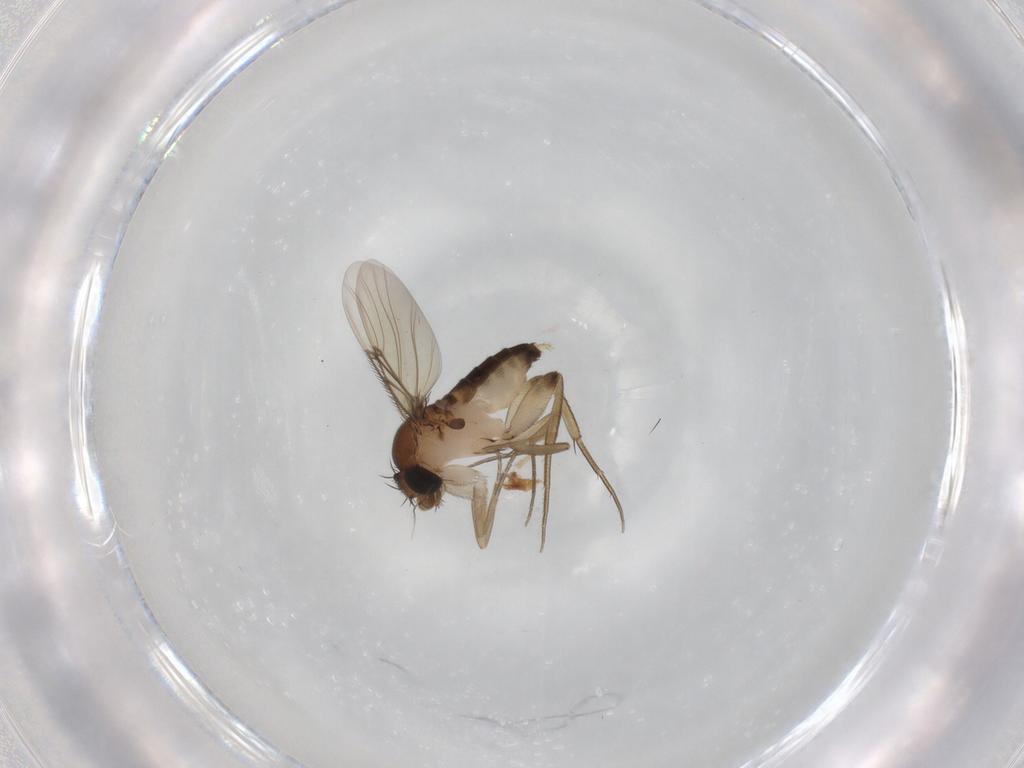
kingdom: Animalia
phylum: Arthropoda
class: Insecta
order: Diptera
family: Phoridae
